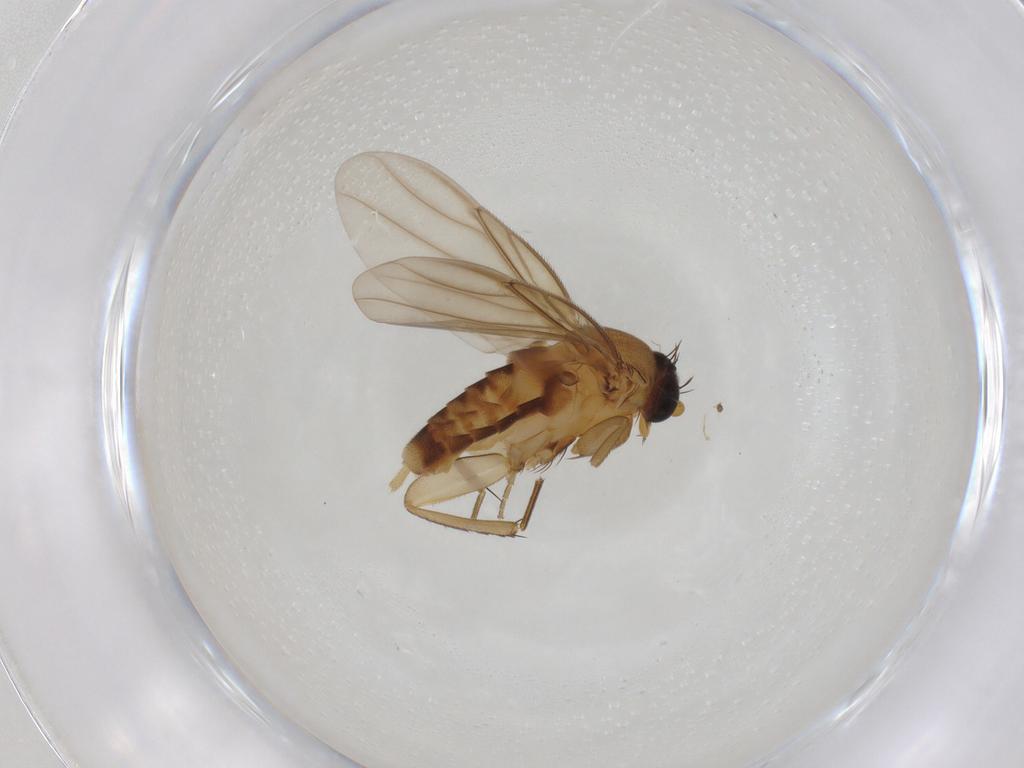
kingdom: Animalia
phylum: Arthropoda
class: Insecta
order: Diptera
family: Phoridae
